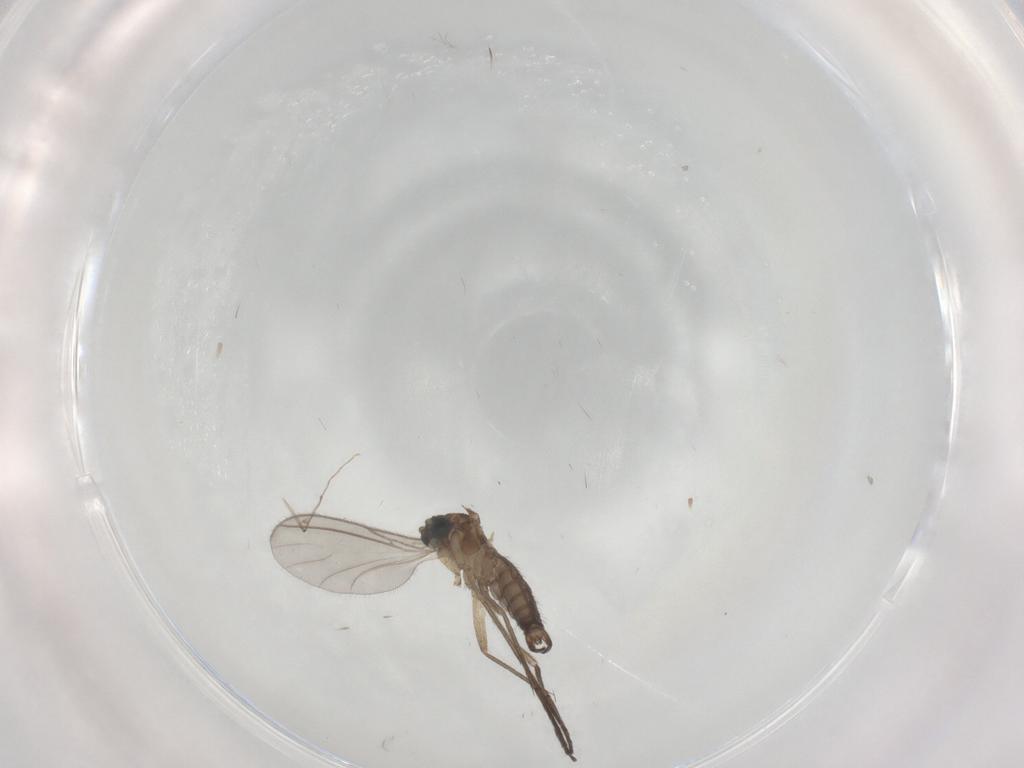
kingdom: Animalia
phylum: Arthropoda
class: Insecta
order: Diptera
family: Sciaridae
